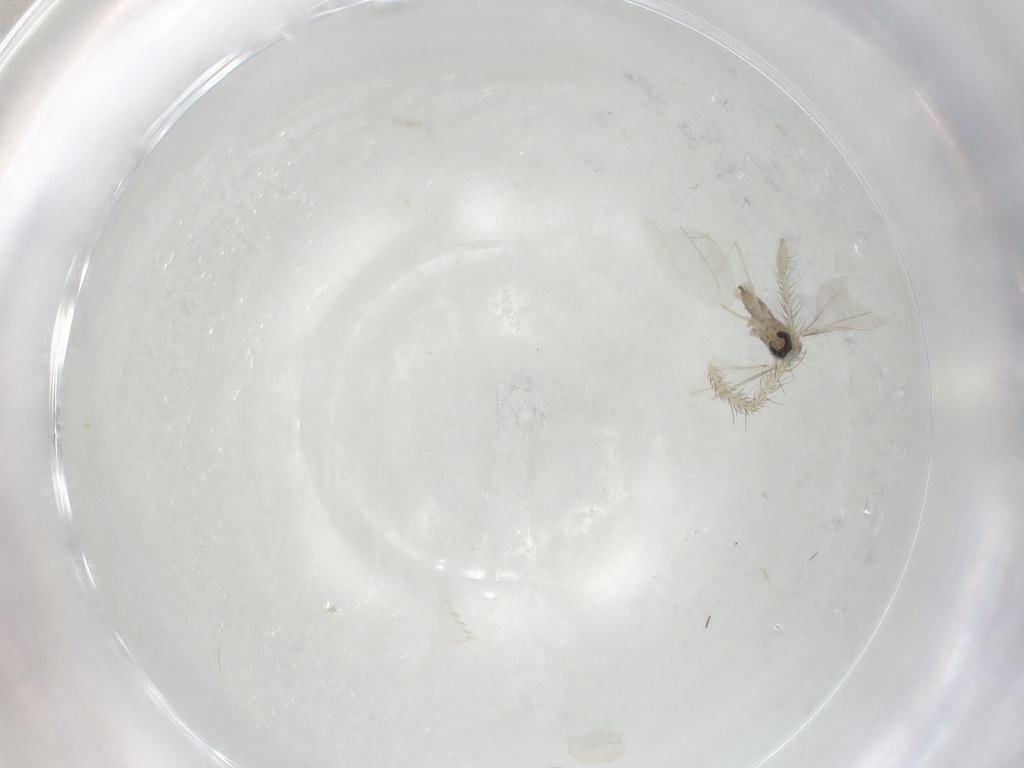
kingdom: Animalia
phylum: Arthropoda
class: Insecta
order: Diptera
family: Cecidomyiidae
